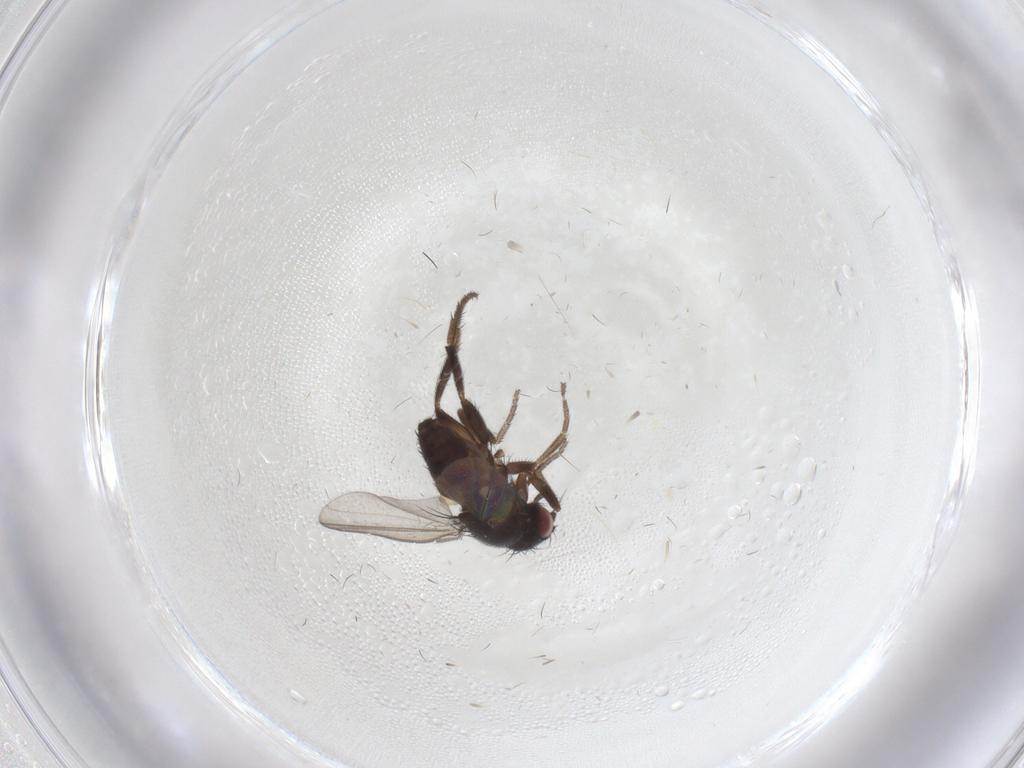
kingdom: Animalia
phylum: Arthropoda
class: Insecta
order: Diptera
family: Milichiidae
